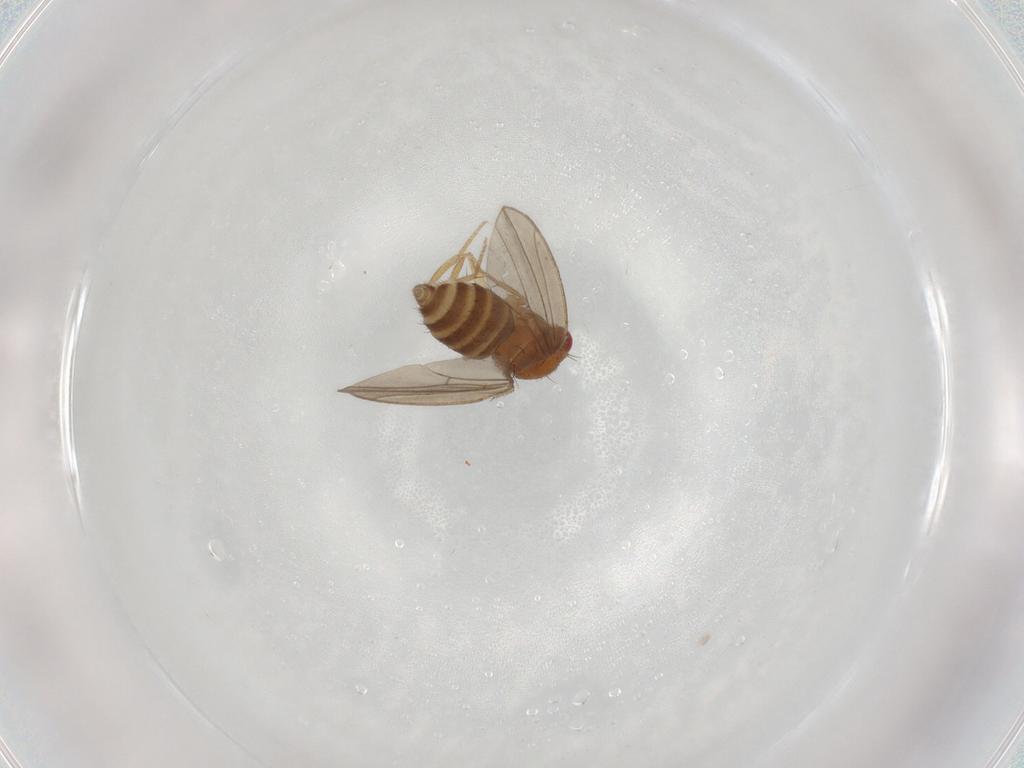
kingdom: Animalia
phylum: Arthropoda
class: Insecta
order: Diptera
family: Drosophilidae
